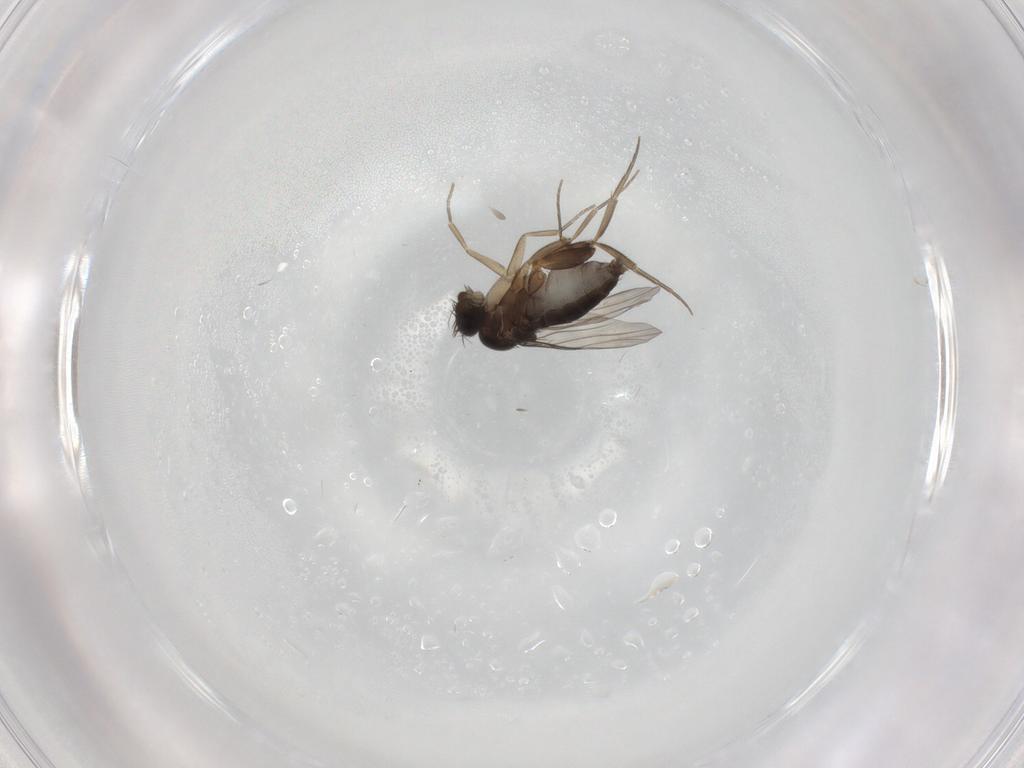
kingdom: Animalia
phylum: Arthropoda
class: Insecta
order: Diptera
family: Phoridae
